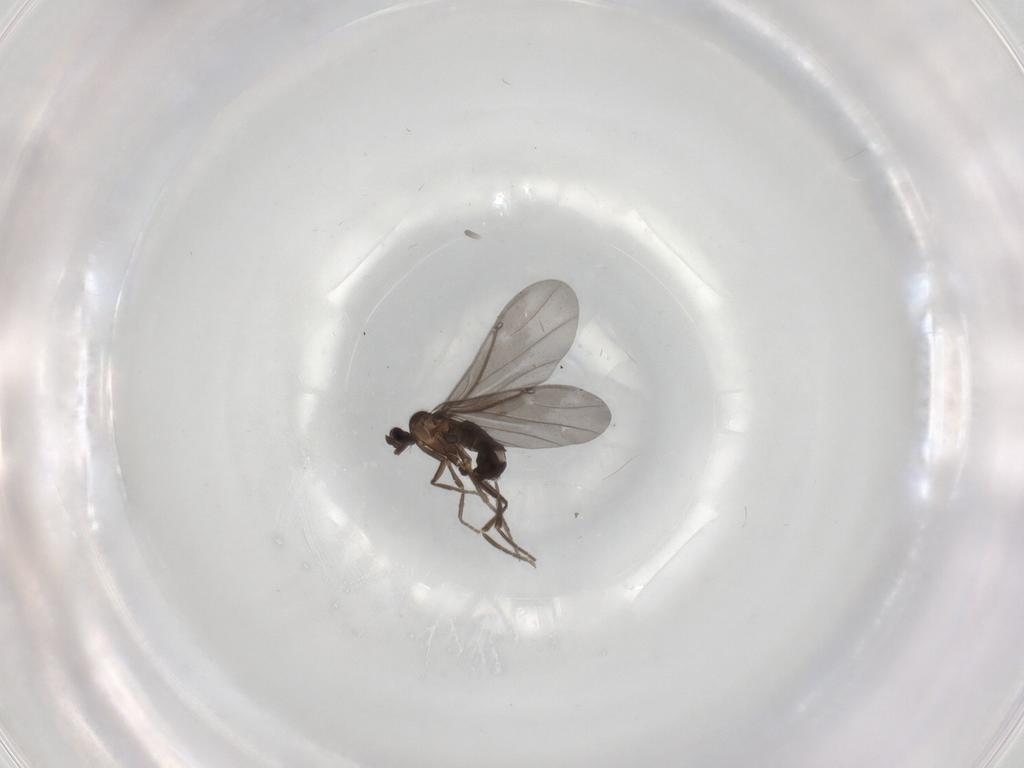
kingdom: Animalia
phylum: Arthropoda
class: Insecta
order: Diptera
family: Phoridae
